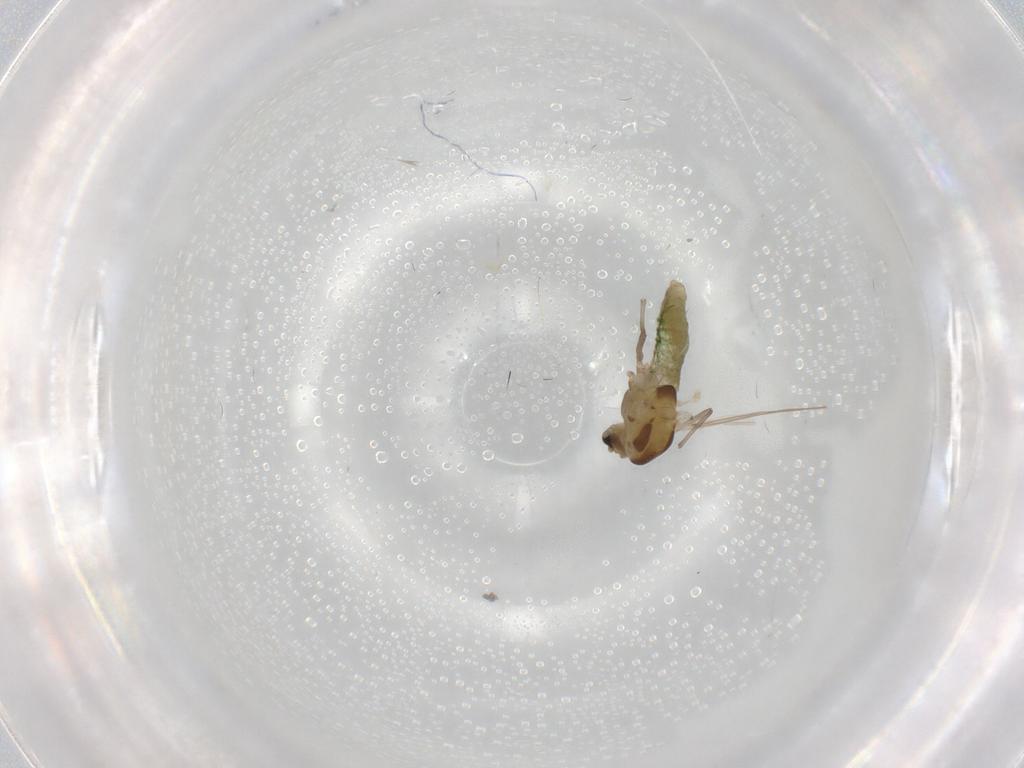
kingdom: Animalia
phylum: Arthropoda
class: Insecta
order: Diptera
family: Chironomidae
